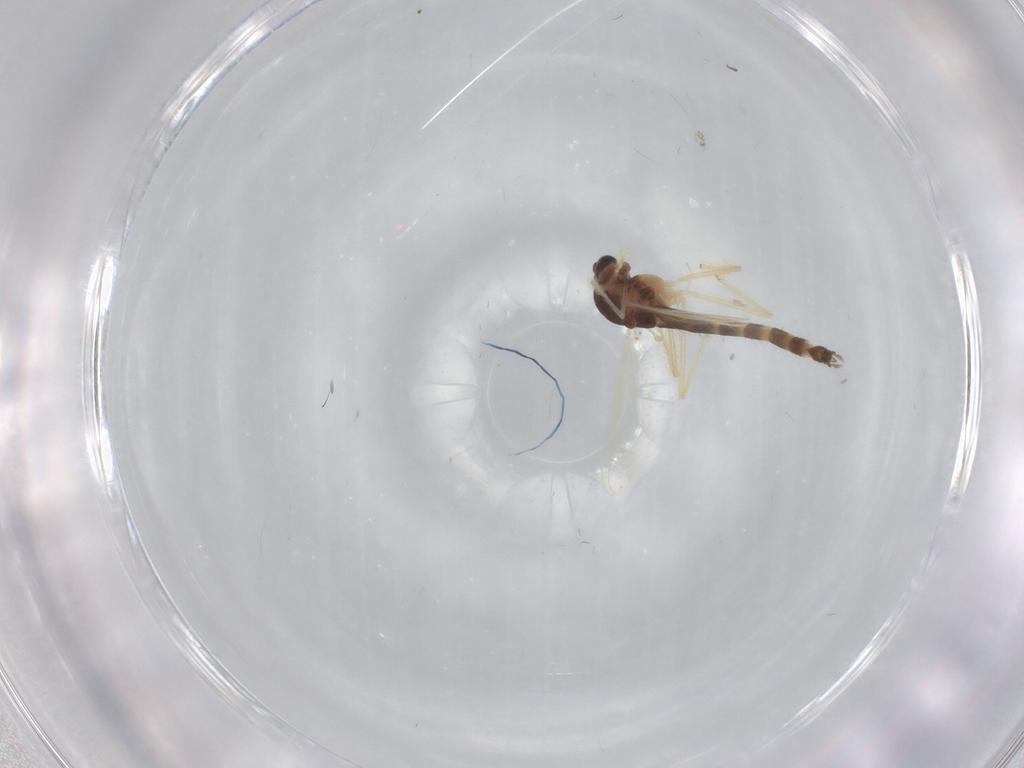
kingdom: Animalia
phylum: Arthropoda
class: Insecta
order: Diptera
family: Chironomidae
